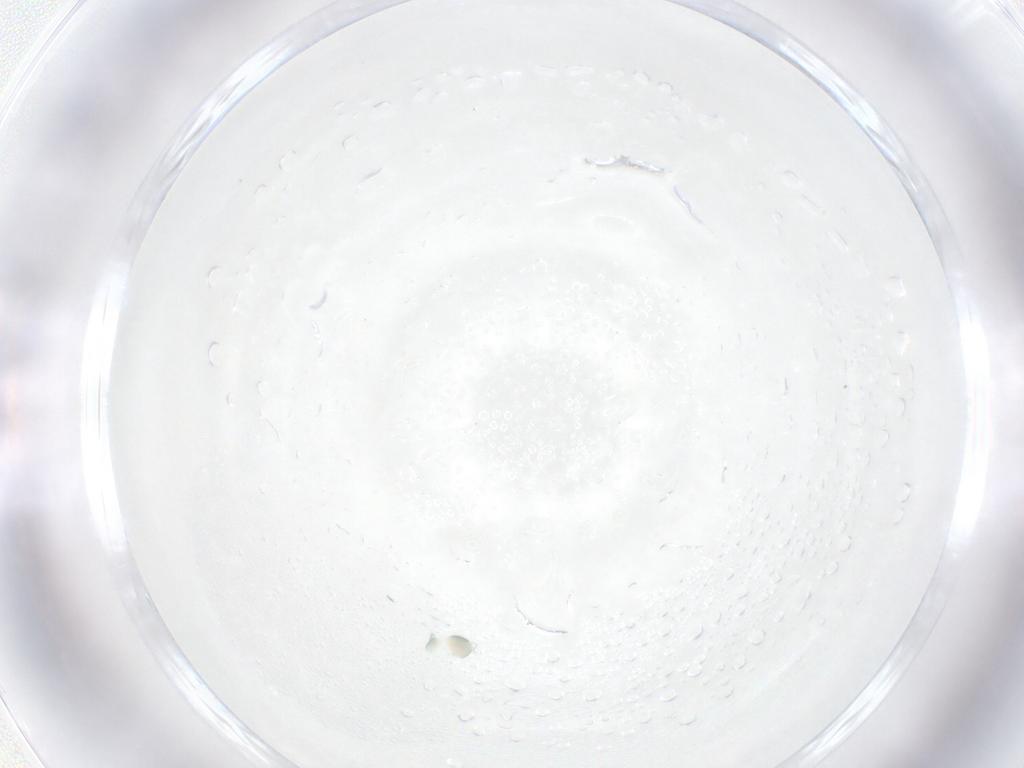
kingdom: Animalia
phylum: Arthropoda
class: Arachnida
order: Trombidiformes
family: Arrenuridae
